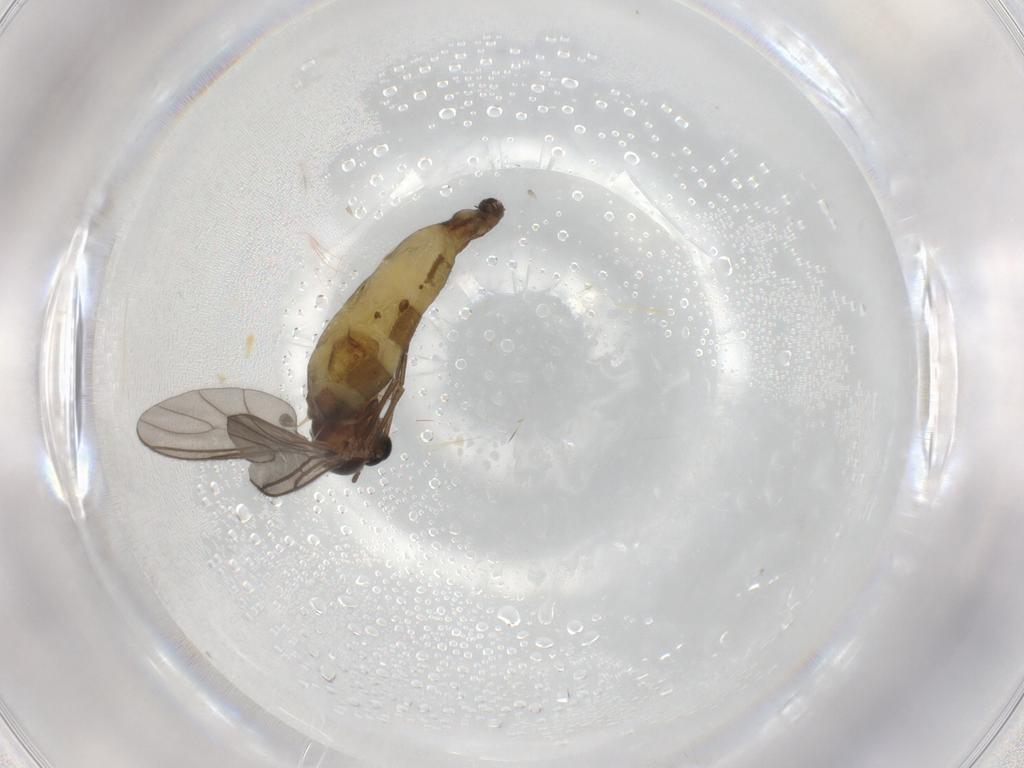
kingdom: Animalia
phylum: Arthropoda
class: Insecta
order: Diptera
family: Sciaridae
